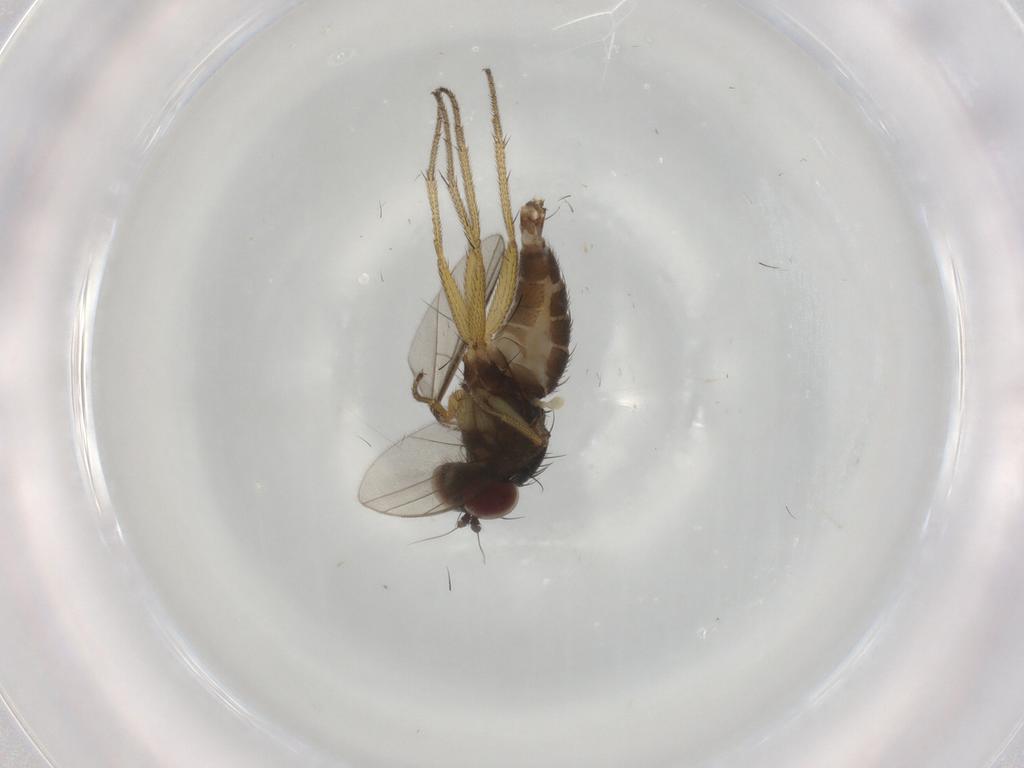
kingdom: Animalia
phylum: Arthropoda
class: Insecta
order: Diptera
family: Dolichopodidae
